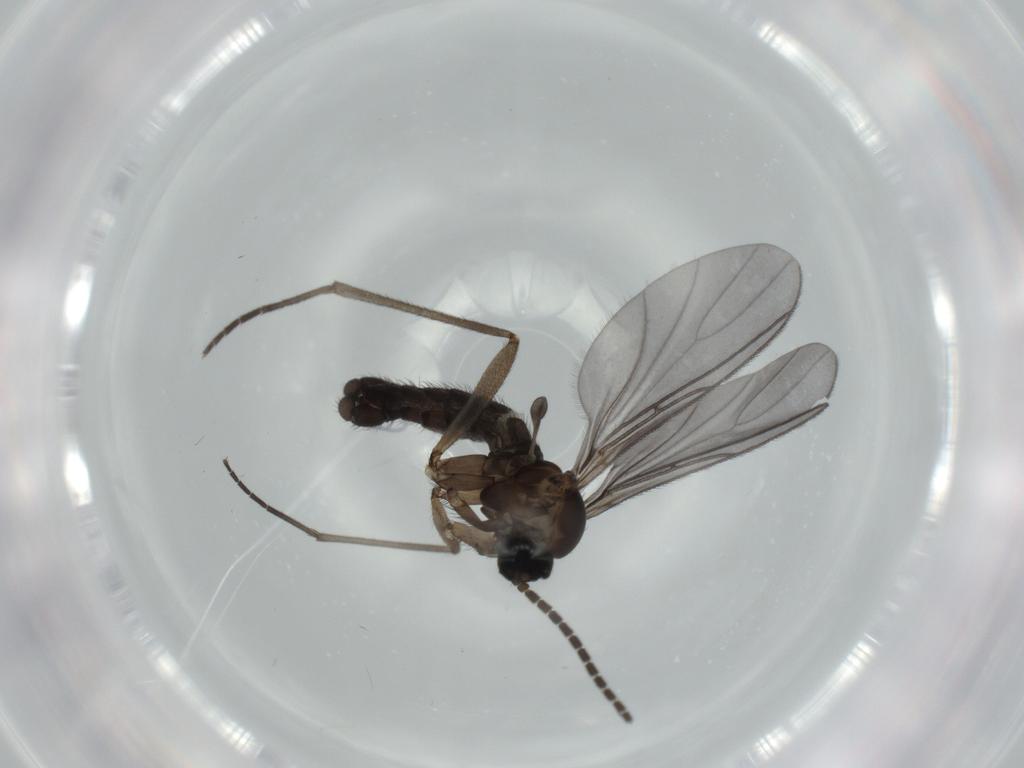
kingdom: Animalia
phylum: Arthropoda
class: Insecta
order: Diptera
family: Sciaridae
